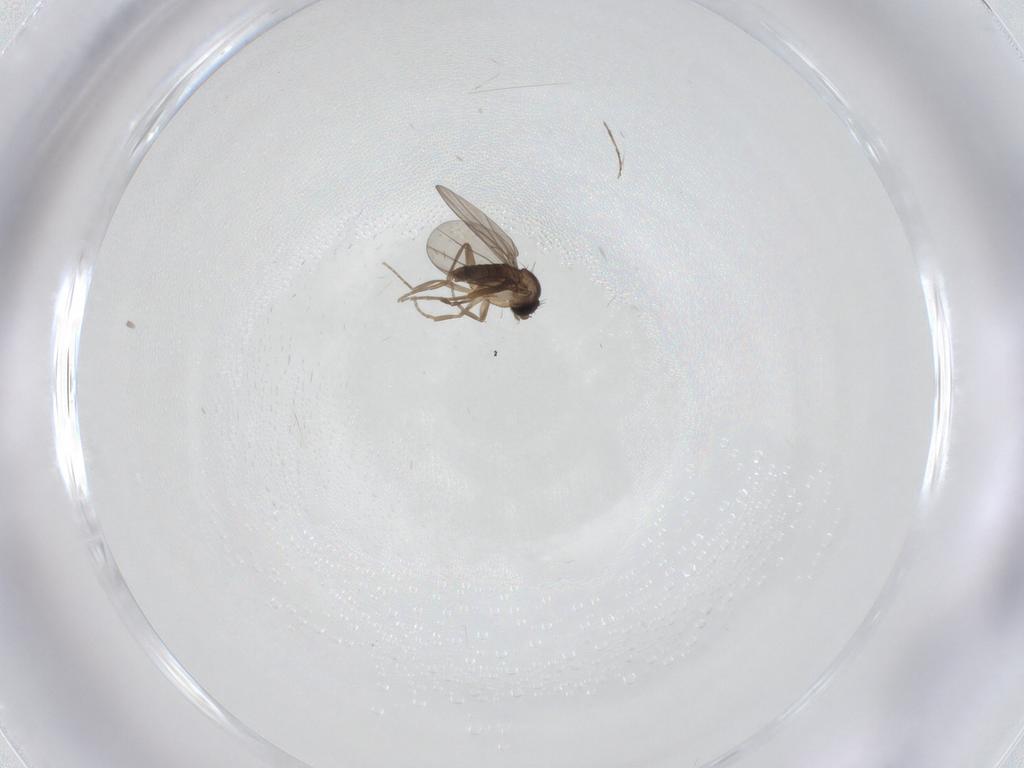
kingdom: Animalia
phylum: Arthropoda
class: Insecta
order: Diptera
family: Phoridae
